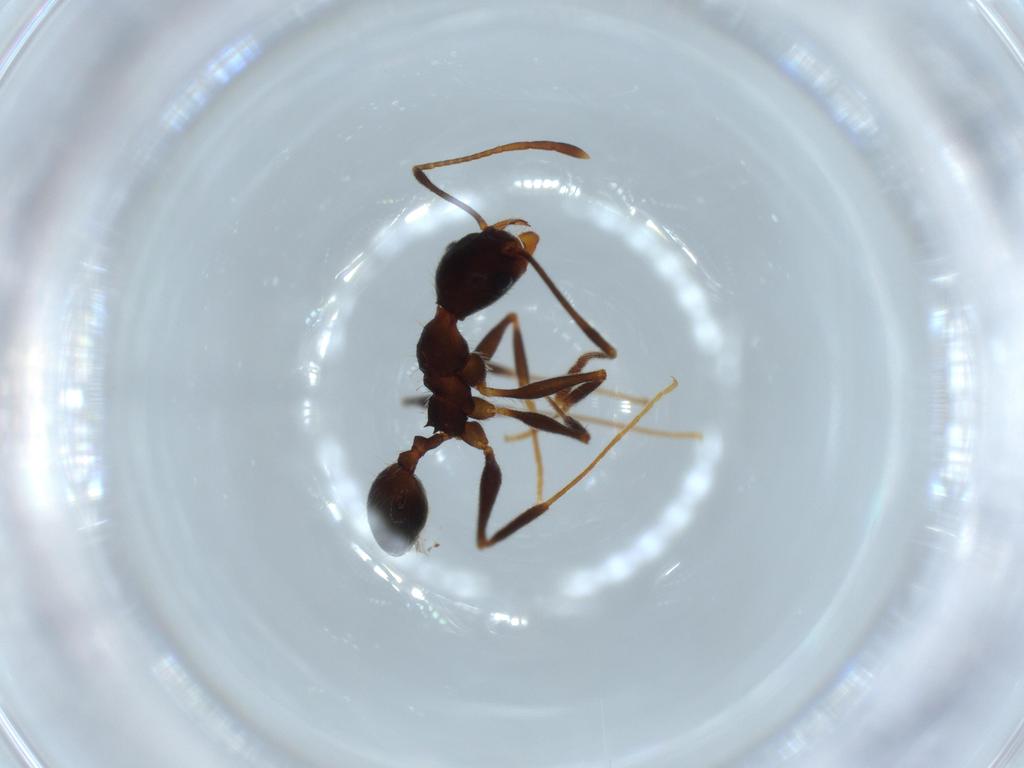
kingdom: Animalia
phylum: Arthropoda
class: Insecta
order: Hymenoptera
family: Formicidae
